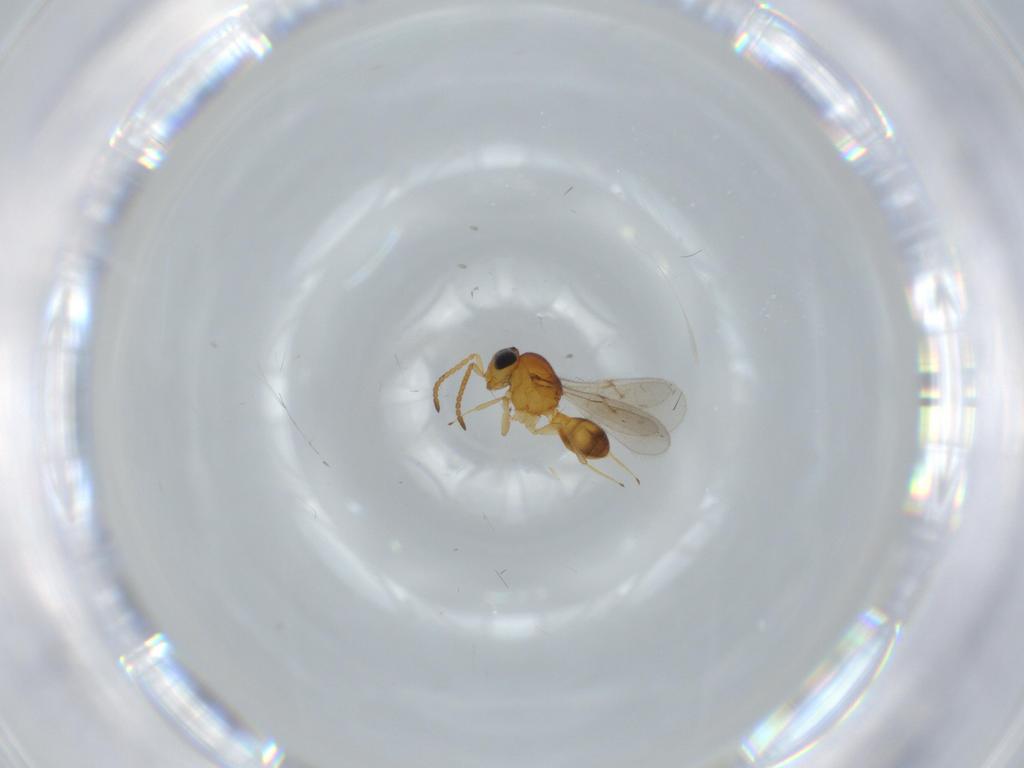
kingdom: Animalia
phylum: Arthropoda
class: Insecta
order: Hymenoptera
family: Scelionidae
